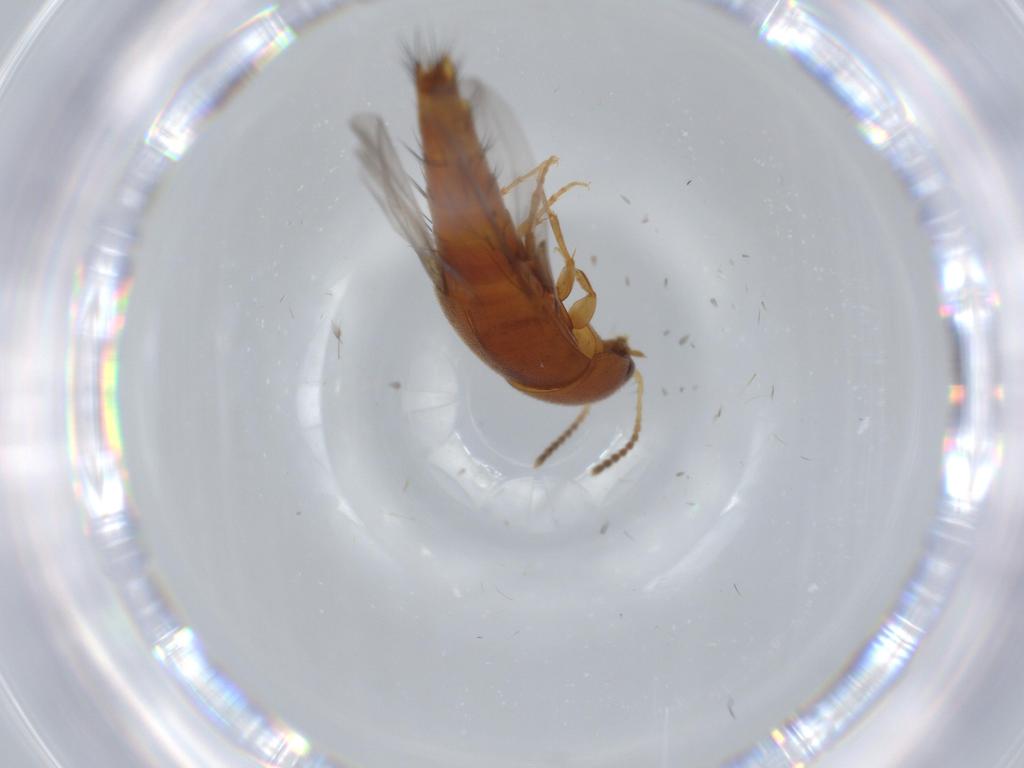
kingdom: Animalia
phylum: Arthropoda
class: Insecta
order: Coleoptera
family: Staphylinidae
